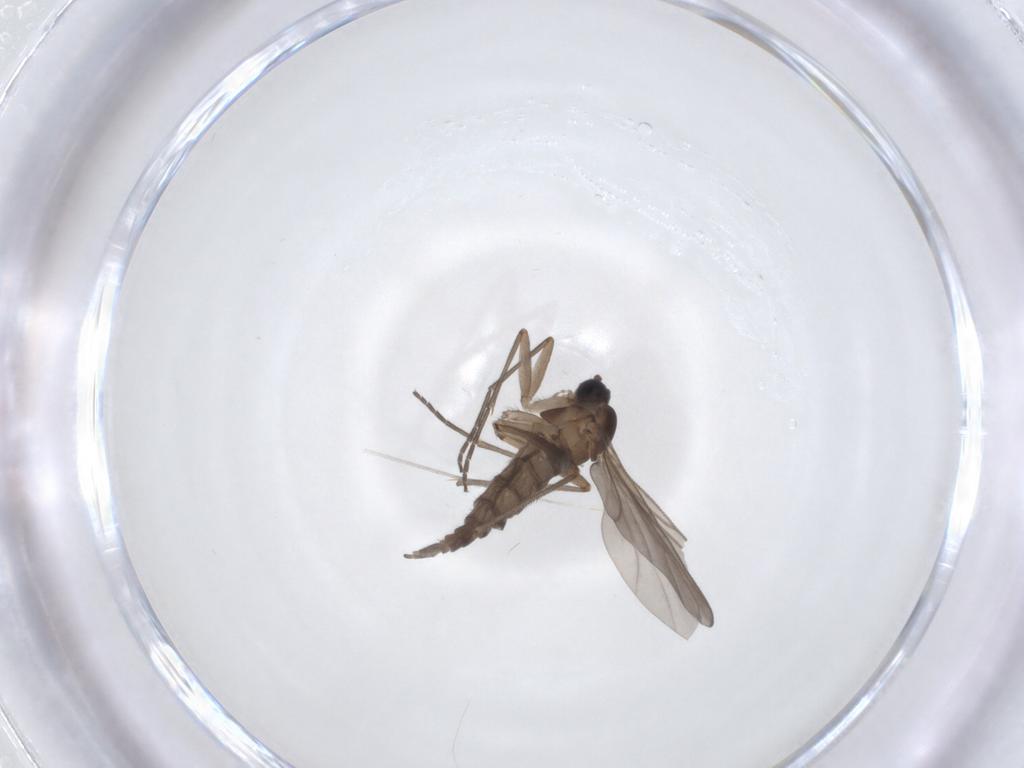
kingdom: Animalia
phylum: Arthropoda
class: Insecta
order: Diptera
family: Sciaridae
